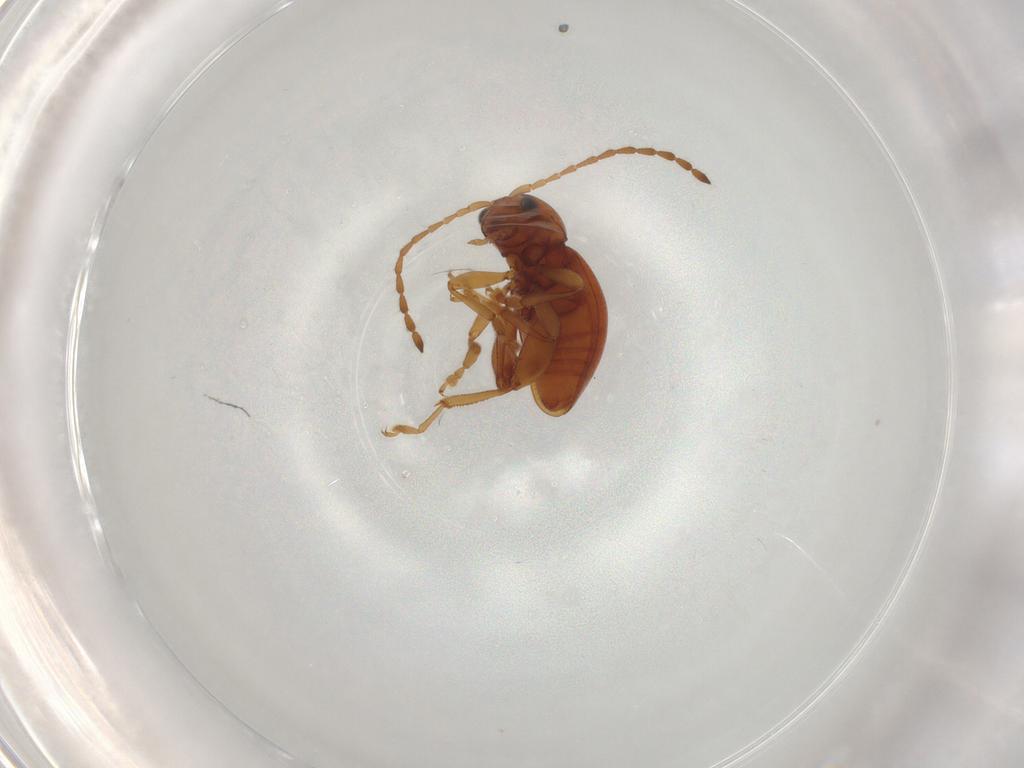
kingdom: Animalia
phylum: Arthropoda
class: Insecta
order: Coleoptera
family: Chrysomelidae
